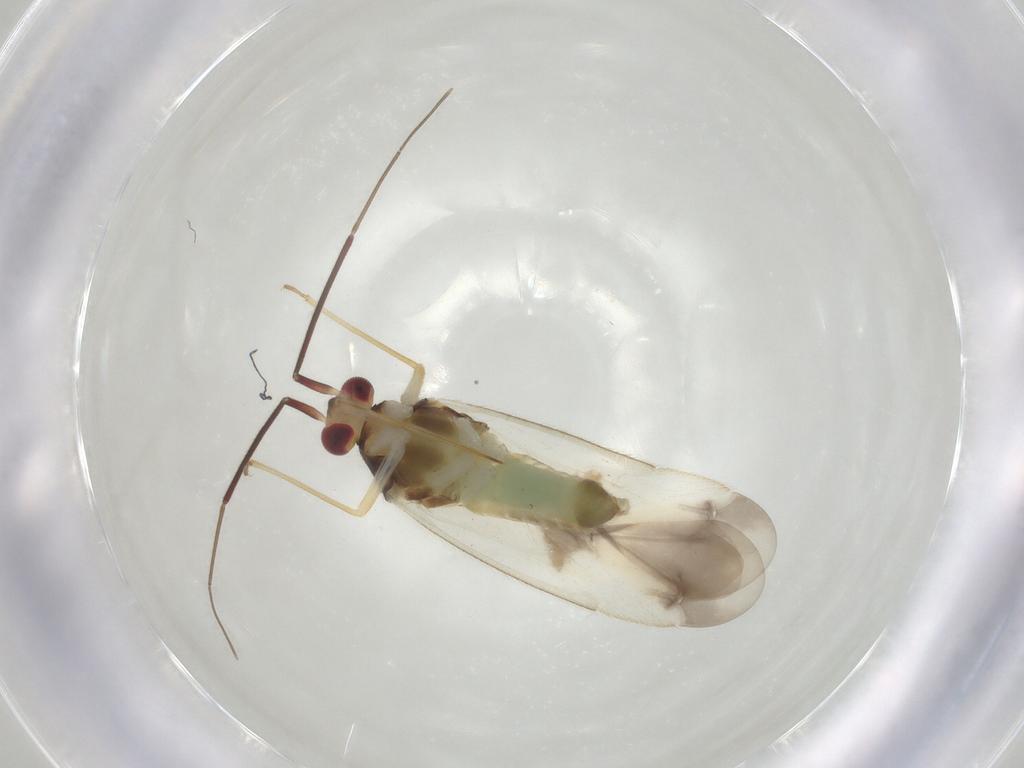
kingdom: Animalia
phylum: Arthropoda
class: Insecta
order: Hemiptera
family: Miridae
